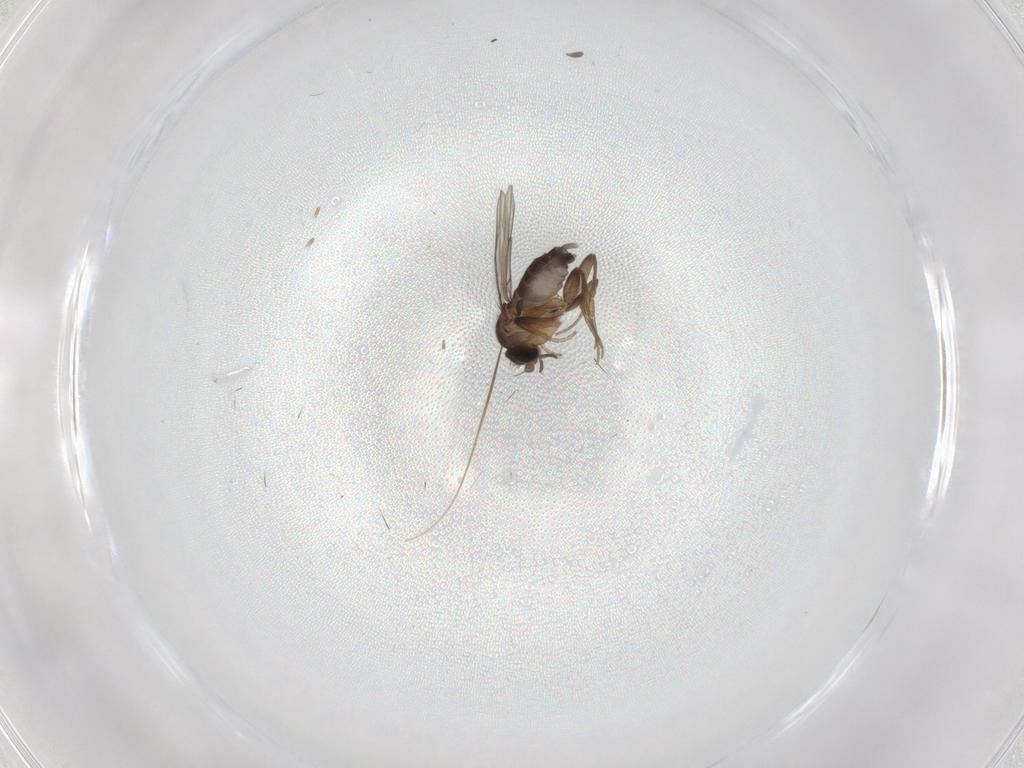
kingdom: Animalia
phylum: Arthropoda
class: Insecta
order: Diptera
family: Phoridae
